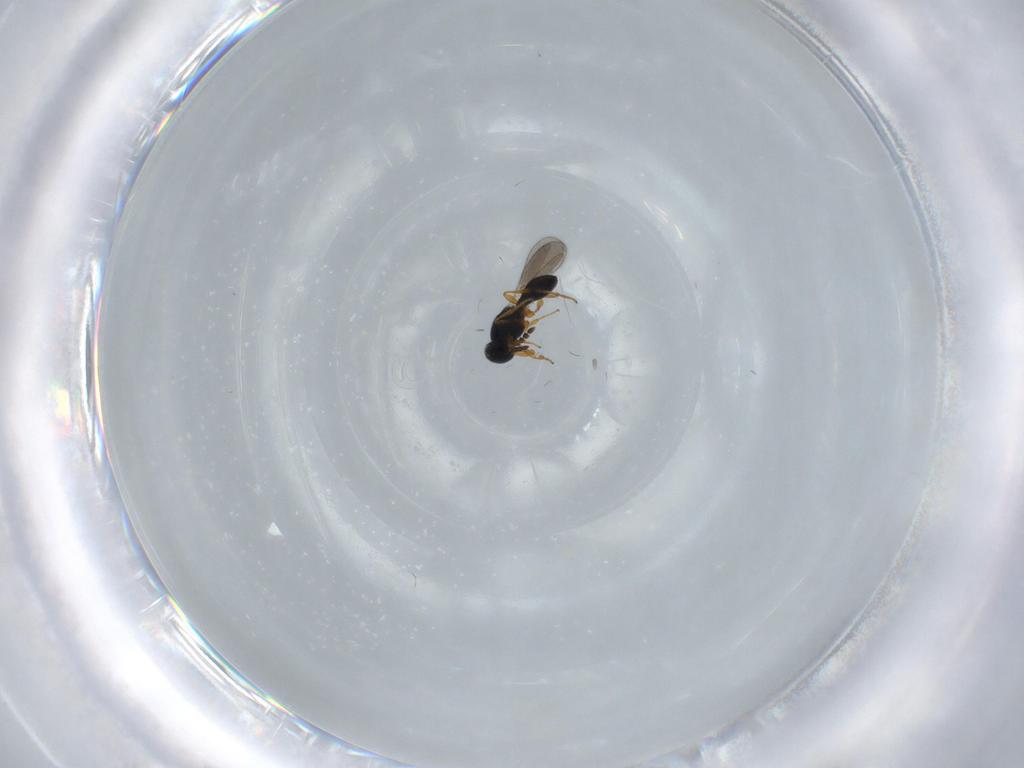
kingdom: Animalia
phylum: Arthropoda
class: Insecta
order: Hymenoptera
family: Platygastridae
